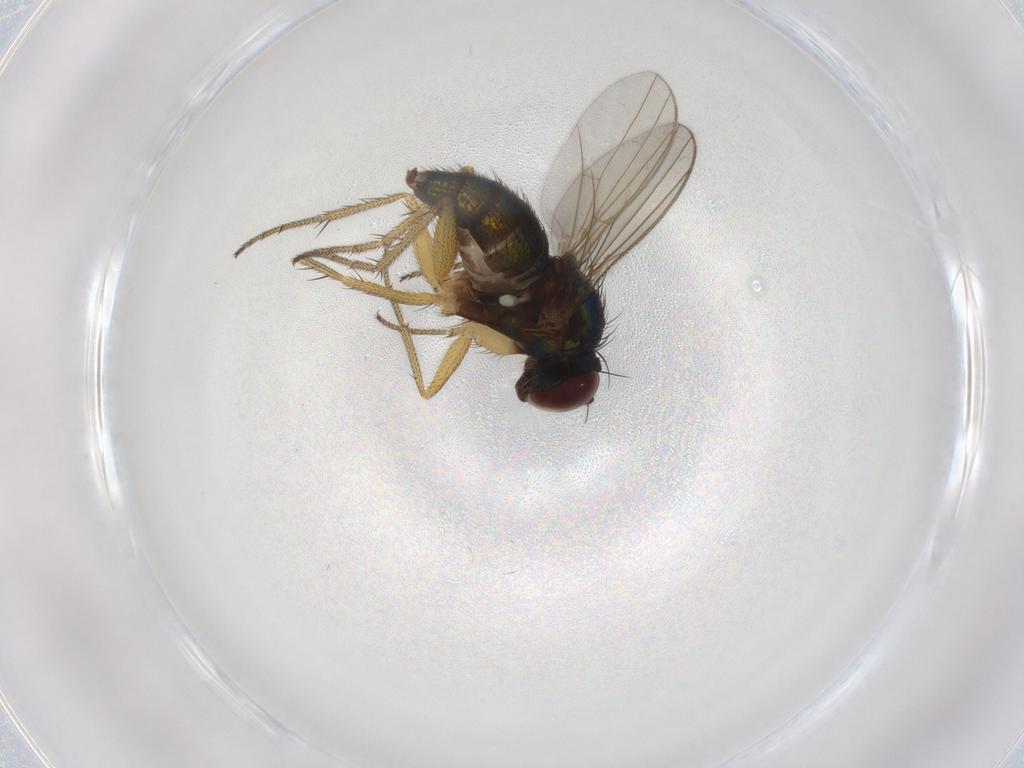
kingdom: Animalia
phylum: Arthropoda
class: Insecta
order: Diptera
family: Dolichopodidae
